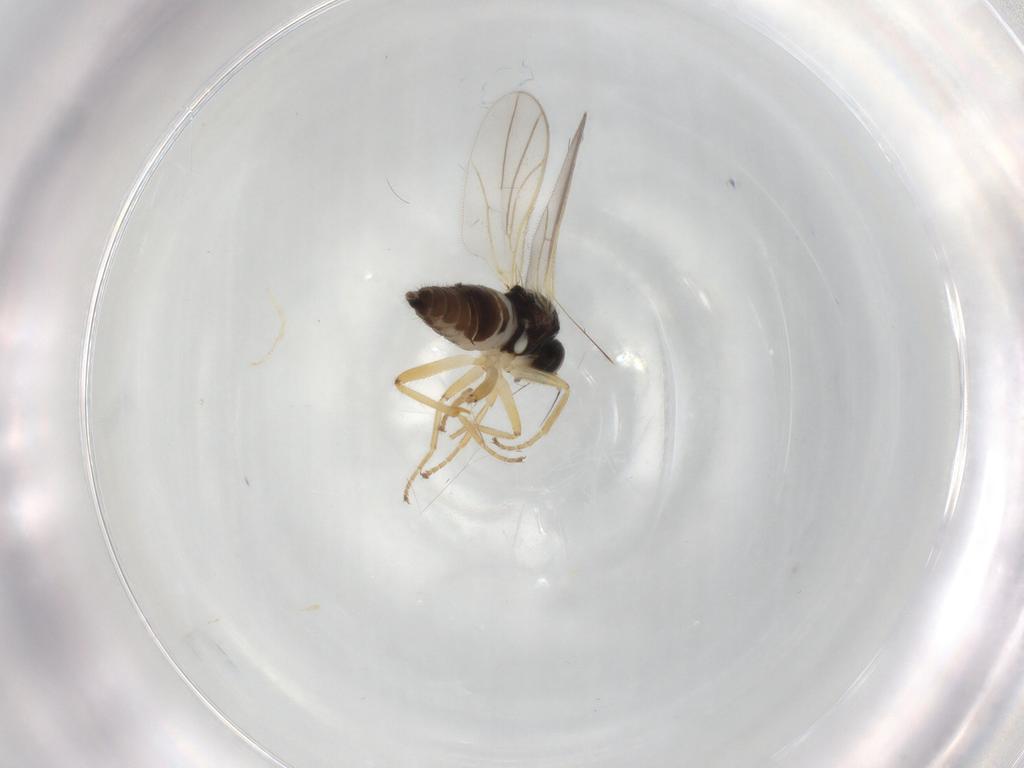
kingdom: Animalia
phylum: Arthropoda
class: Insecta
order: Diptera
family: Hybotidae
